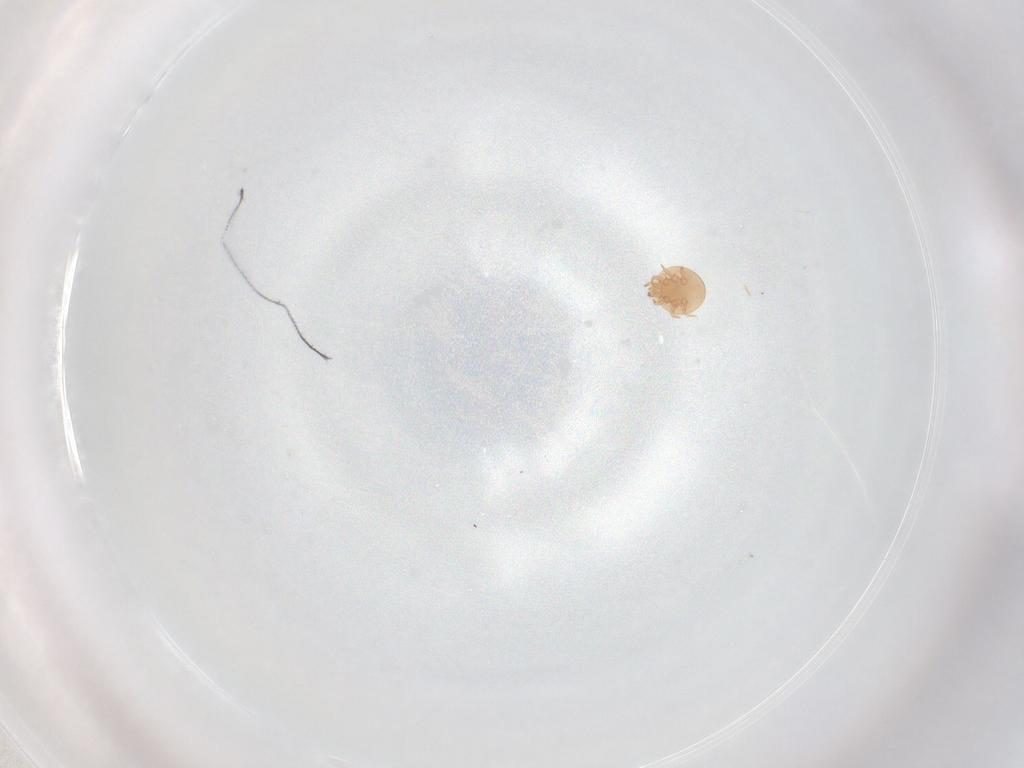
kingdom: Animalia
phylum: Arthropoda
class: Arachnida
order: Mesostigmata
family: Trematuridae
